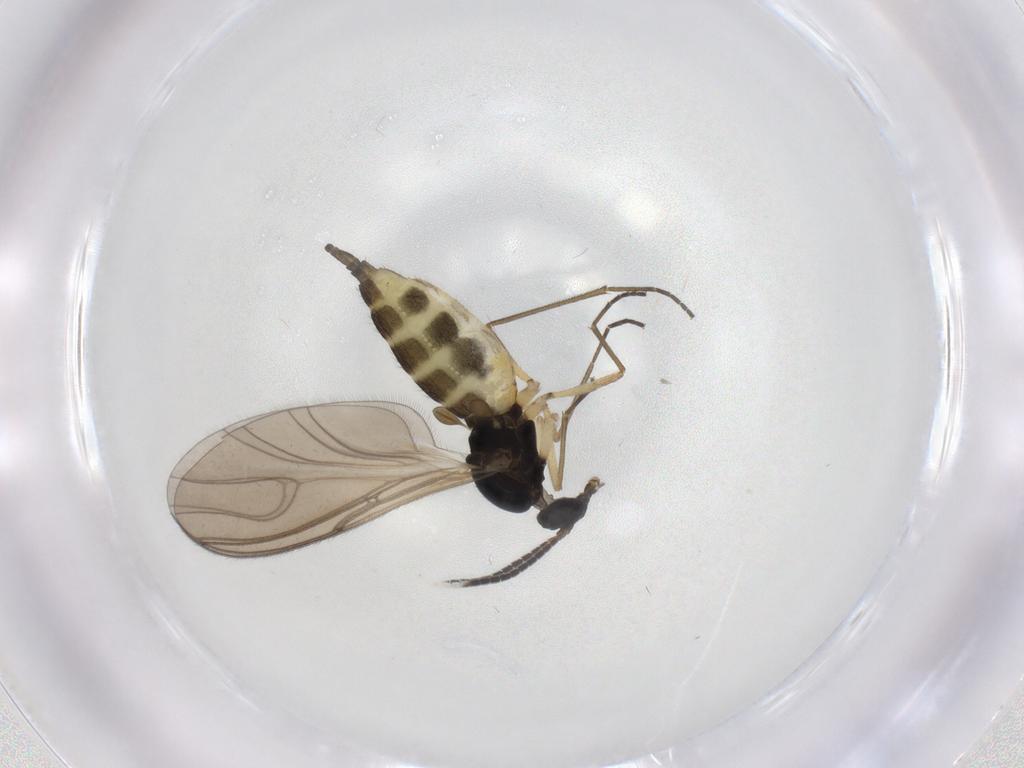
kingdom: Animalia
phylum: Arthropoda
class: Insecta
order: Diptera
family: Sciaridae
